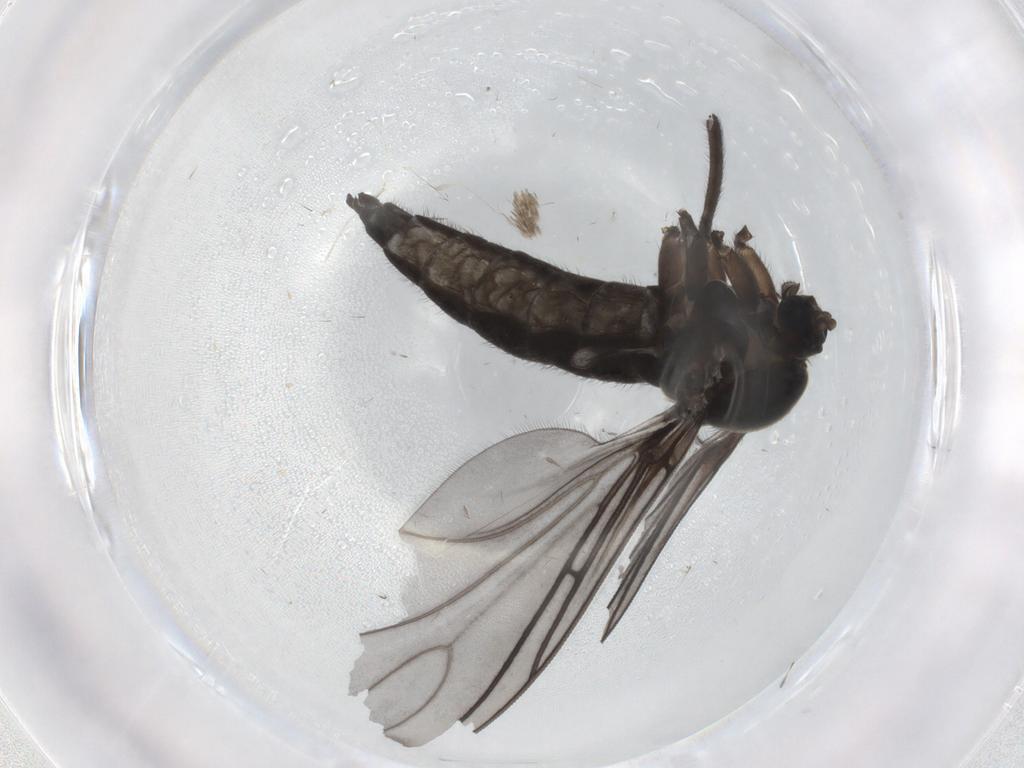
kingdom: Animalia
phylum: Arthropoda
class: Insecta
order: Diptera
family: Sciaridae
